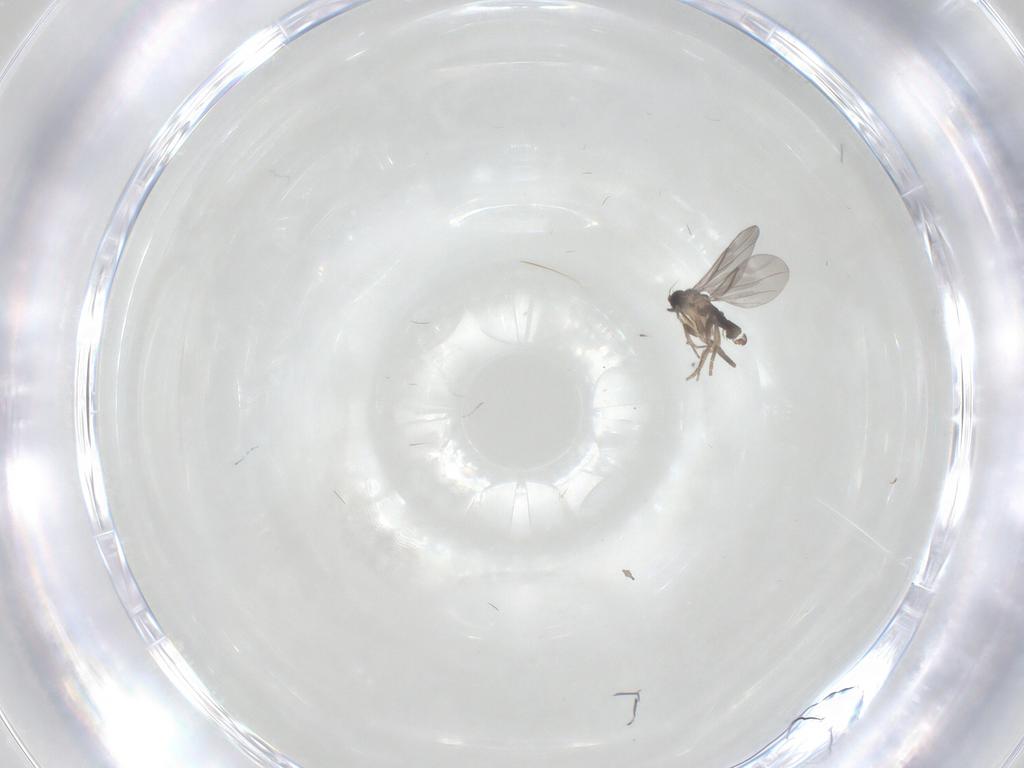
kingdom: Animalia
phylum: Arthropoda
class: Insecta
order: Diptera
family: Cecidomyiidae
